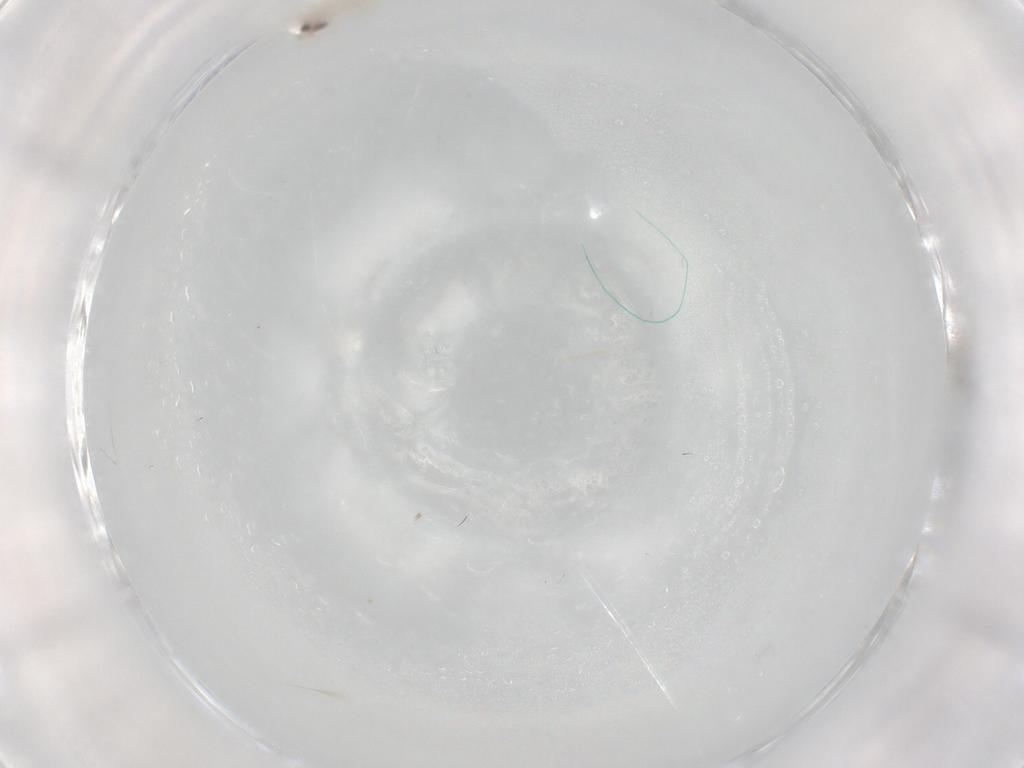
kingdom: Animalia
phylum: Arthropoda
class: Insecta
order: Hemiptera
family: Tropiduchidae
